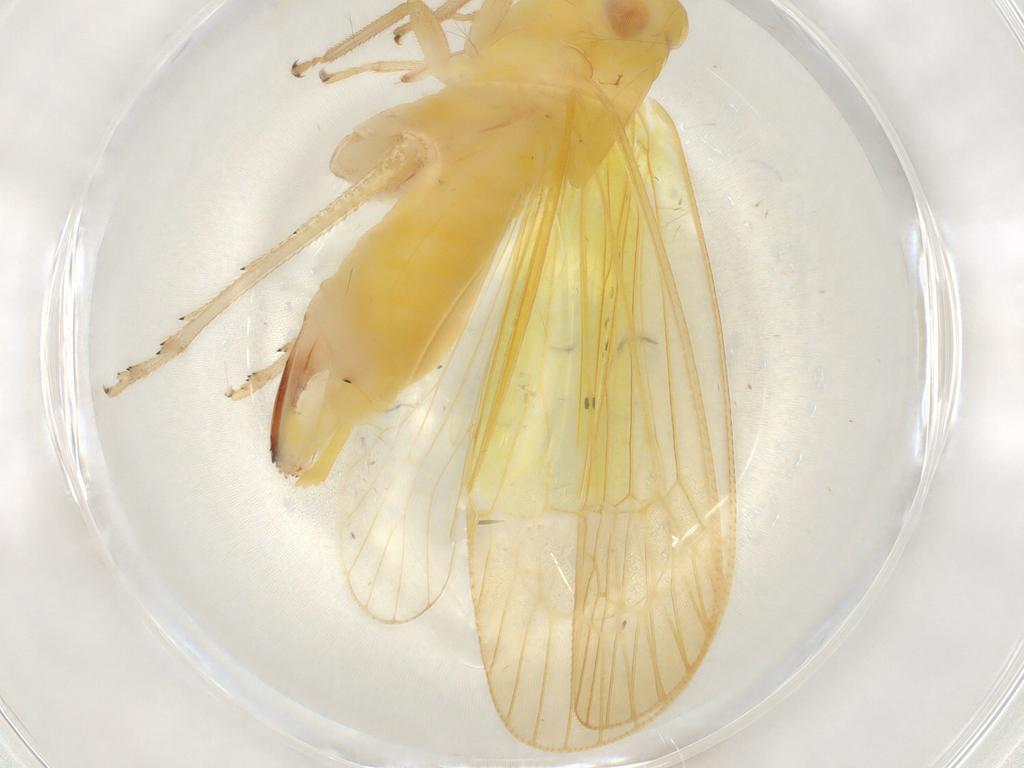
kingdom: Animalia
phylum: Arthropoda
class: Insecta
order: Hemiptera
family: Tropiduchidae
